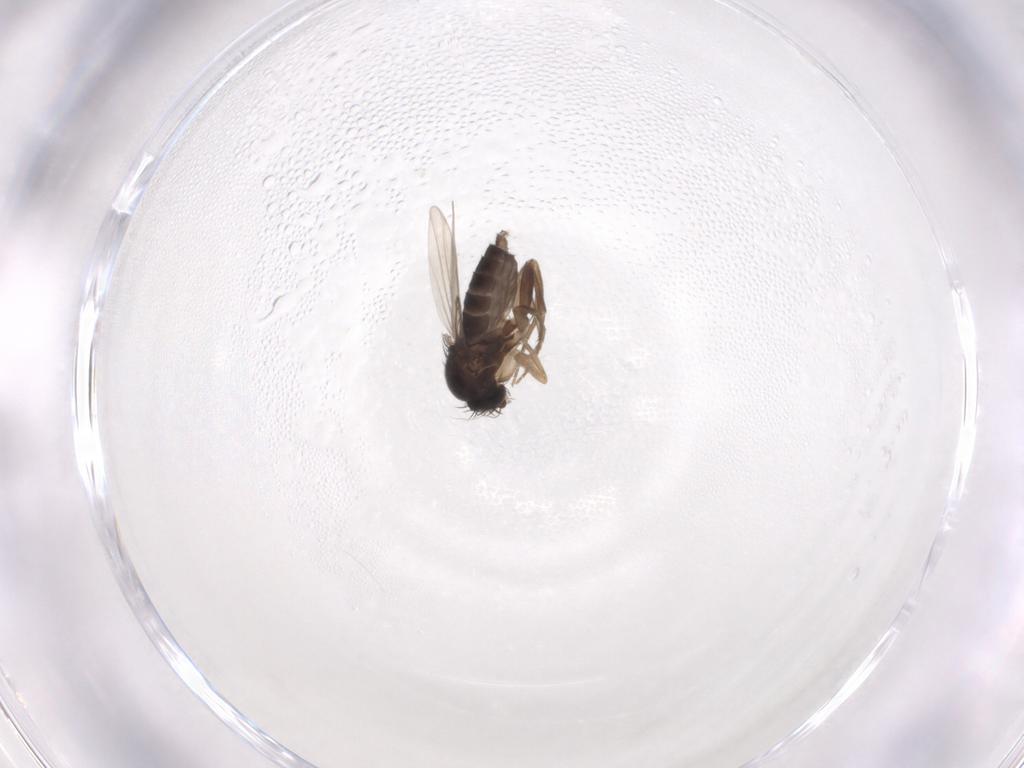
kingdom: Animalia
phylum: Arthropoda
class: Insecta
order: Diptera
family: Phoridae
